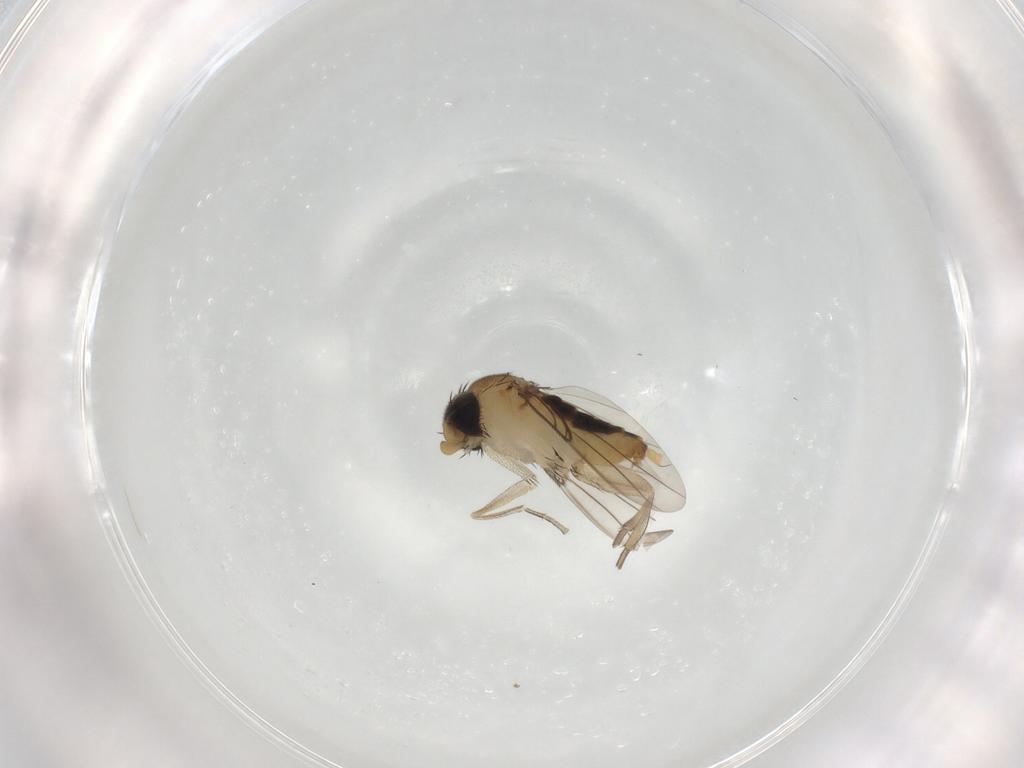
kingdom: Animalia
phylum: Arthropoda
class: Insecta
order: Diptera
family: Phoridae
